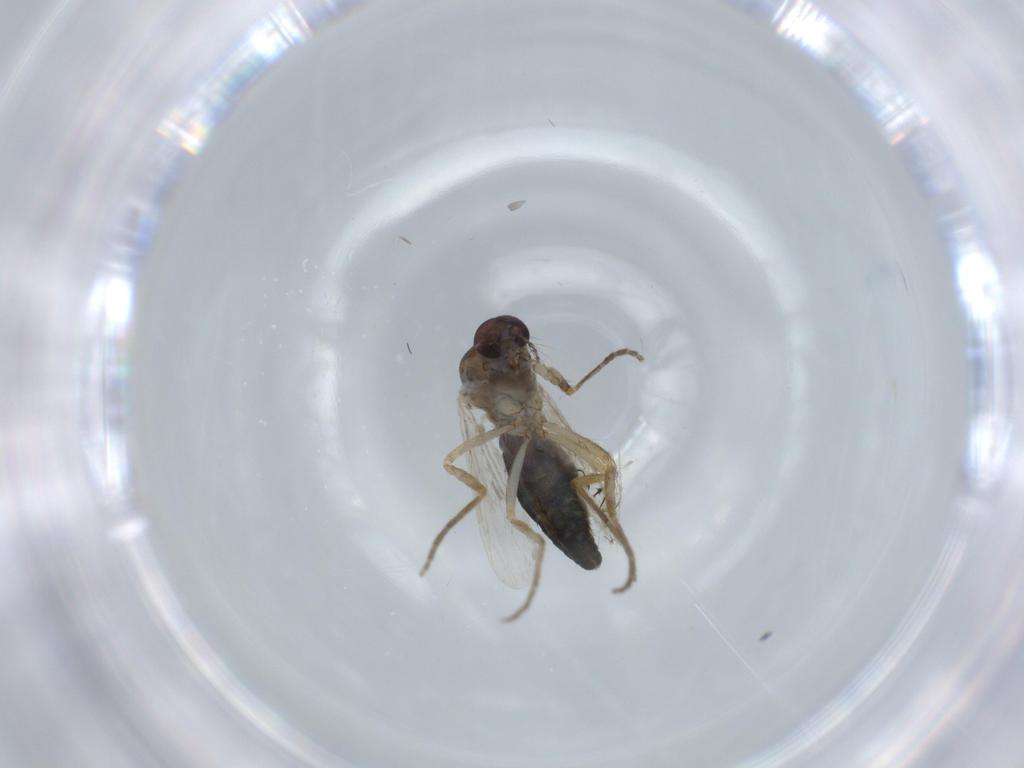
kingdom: Animalia
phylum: Arthropoda
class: Insecta
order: Diptera
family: Ceratopogonidae
